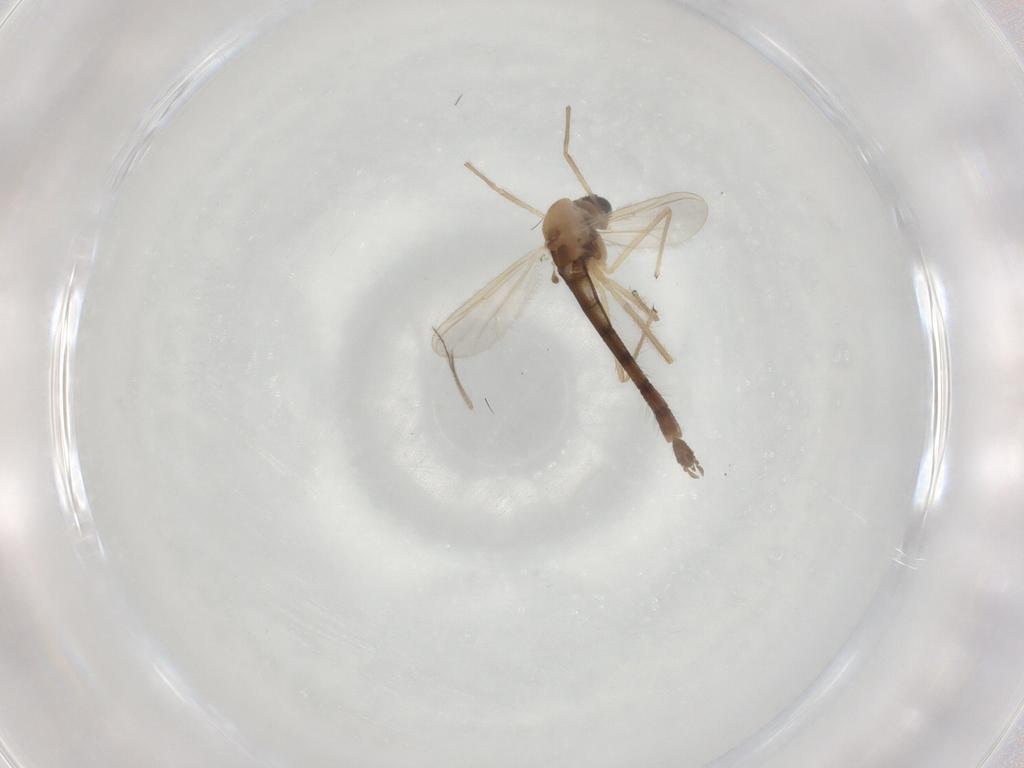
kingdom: Animalia
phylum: Arthropoda
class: Insecta
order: Diptera
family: Chironomidae
